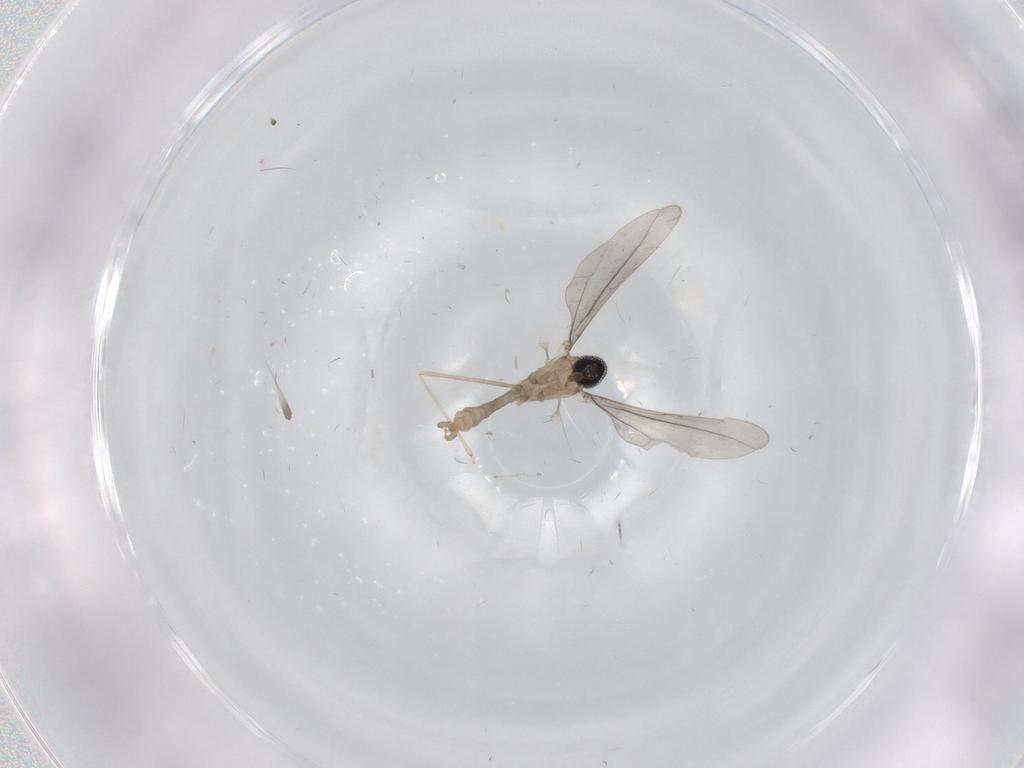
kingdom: Animalia
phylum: Arthropoda
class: Insecta
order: Diptera
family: Cecidomyiidae
